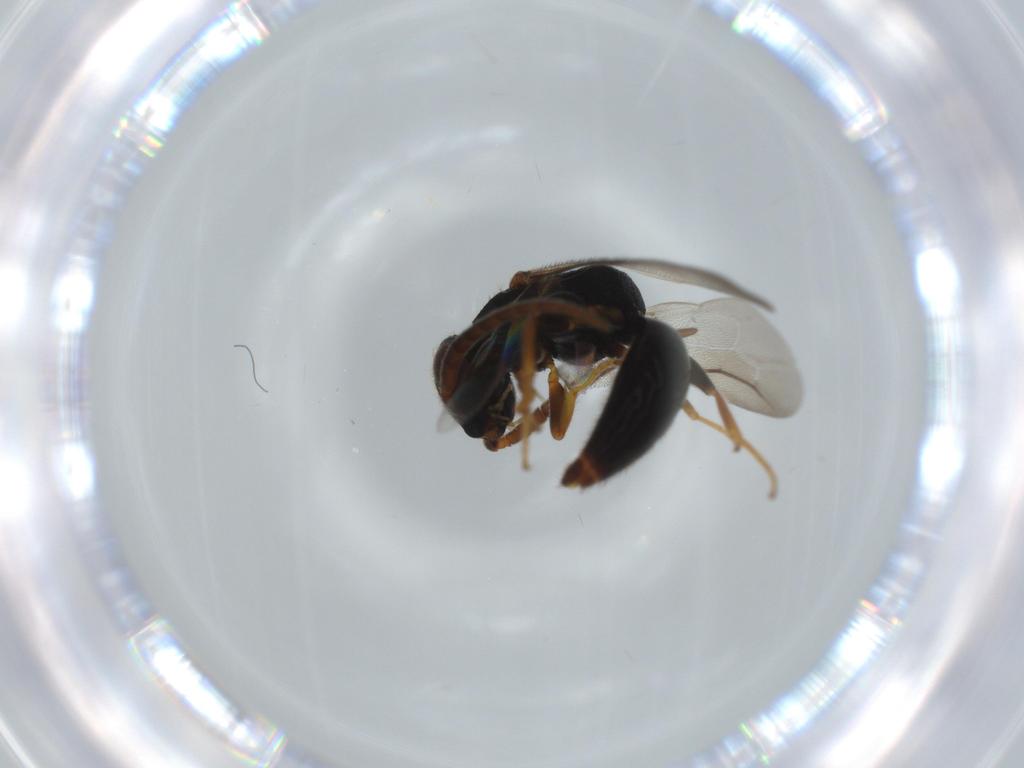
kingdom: Animalia
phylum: Arthropoda
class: Insecta
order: Hymenoptera
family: Bethylidae
